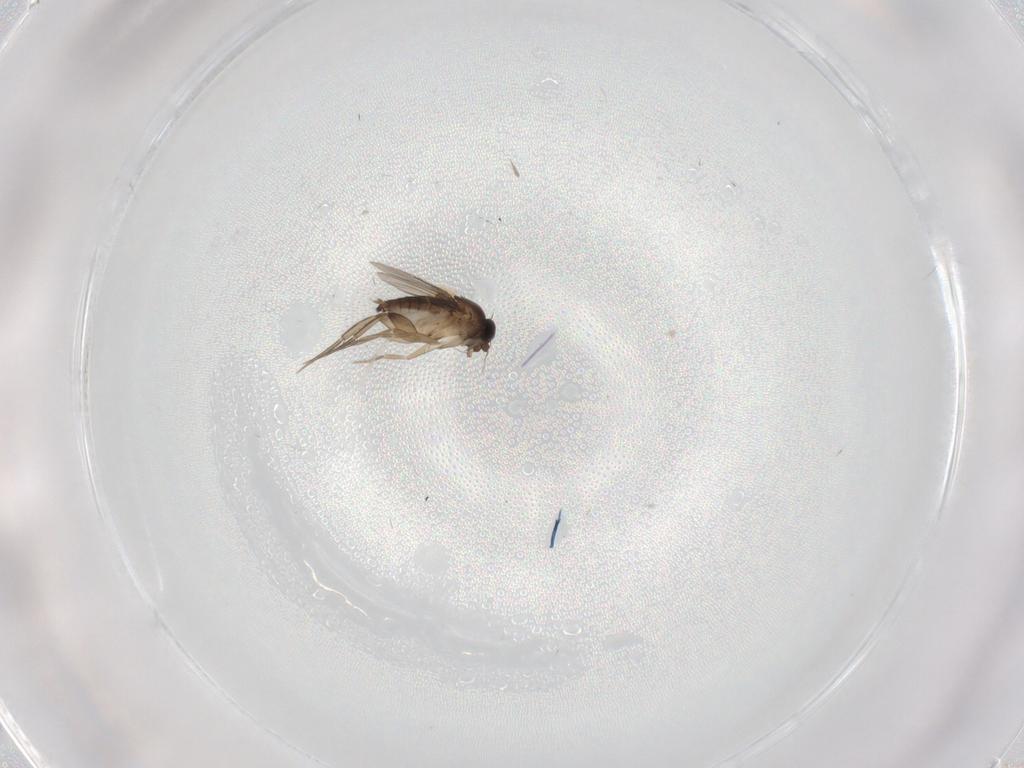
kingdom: Animalia
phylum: Arthropoda
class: Insecta
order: Diptera
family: Phoridae
